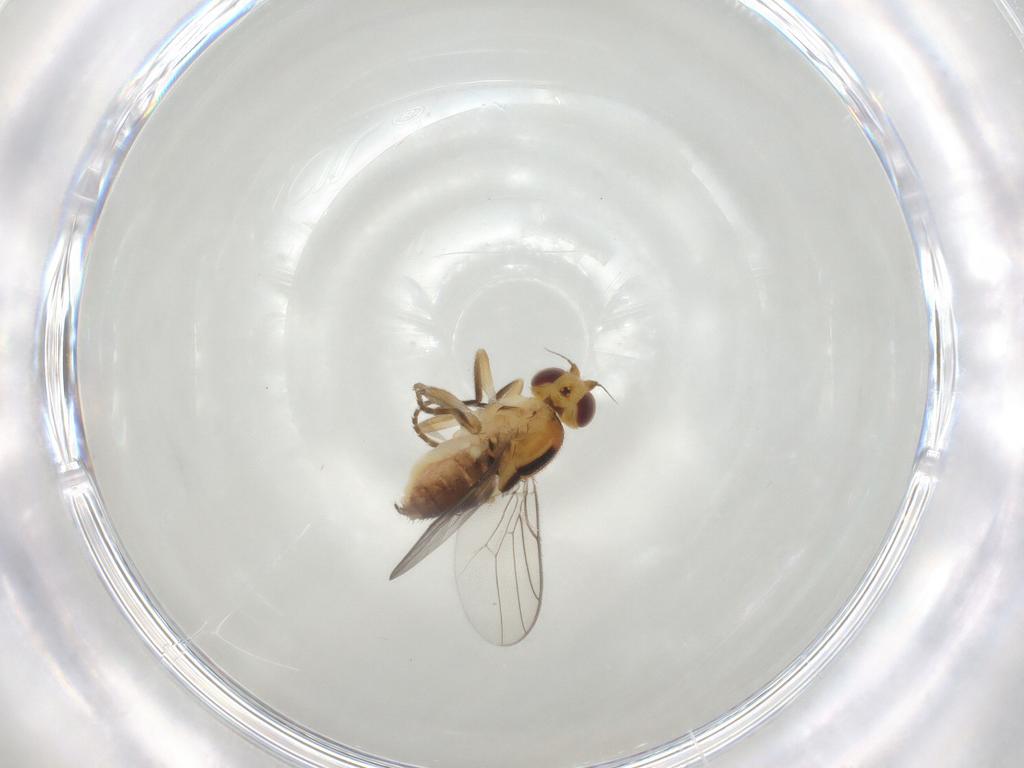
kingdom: Animalia
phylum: Arthropoda
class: Insecta
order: Diptera
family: Chloropidae
